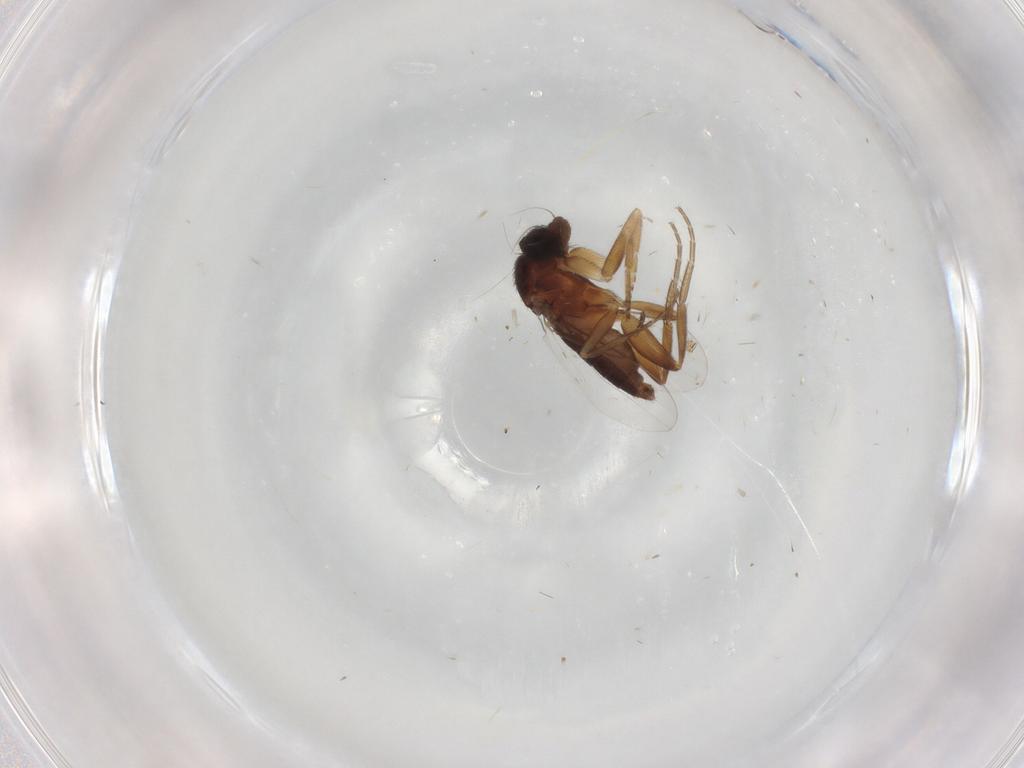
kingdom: Animalia
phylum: Arthropoda
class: Insecta
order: Diptera
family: Phoridae
